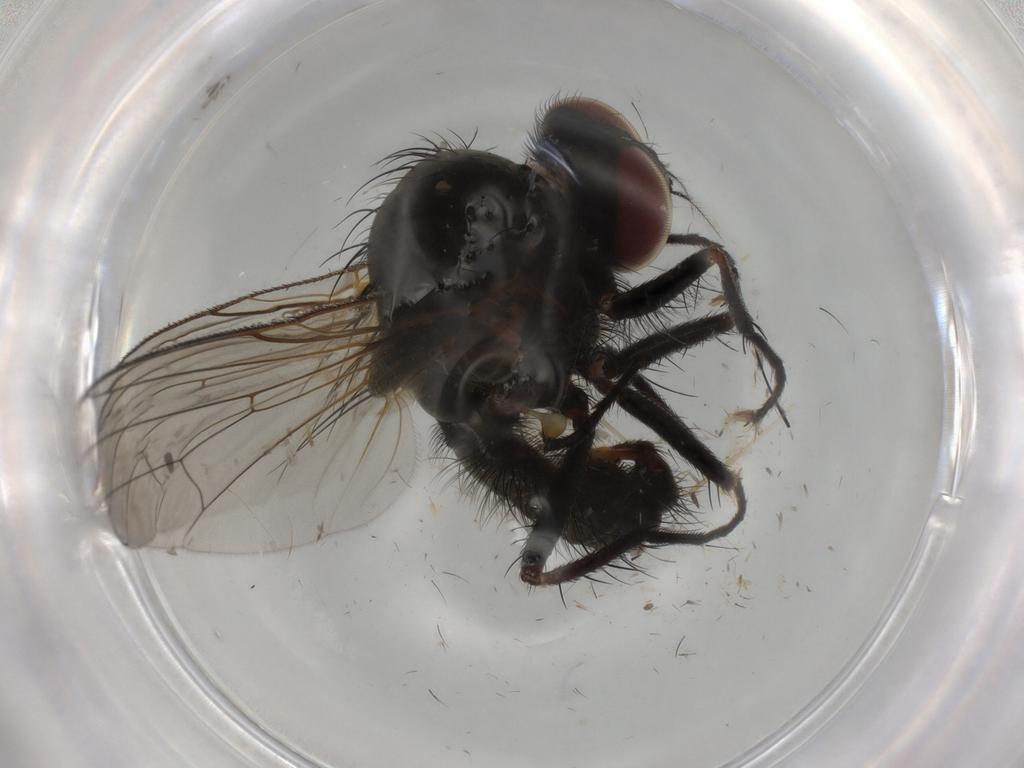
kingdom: Animalia
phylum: Arthropoda
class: Insecta
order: Diptera
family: Anthomyiidae
